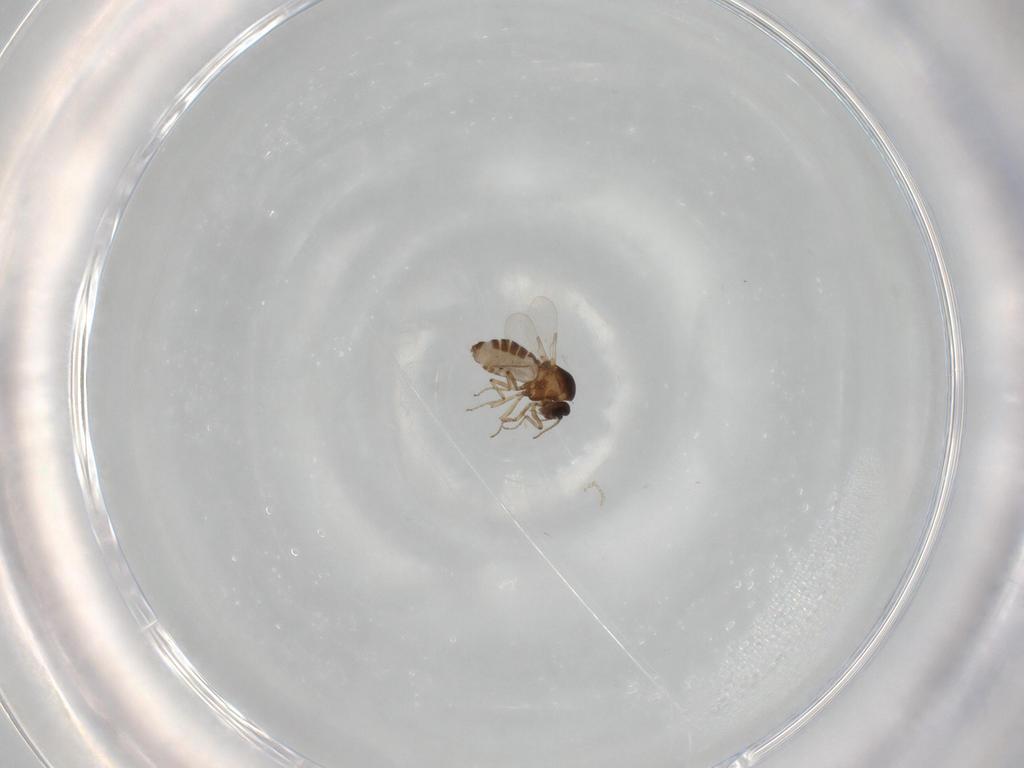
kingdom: Animalia
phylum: Arthropoda
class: Insecta
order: Diptera
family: Ceratopogonidae
